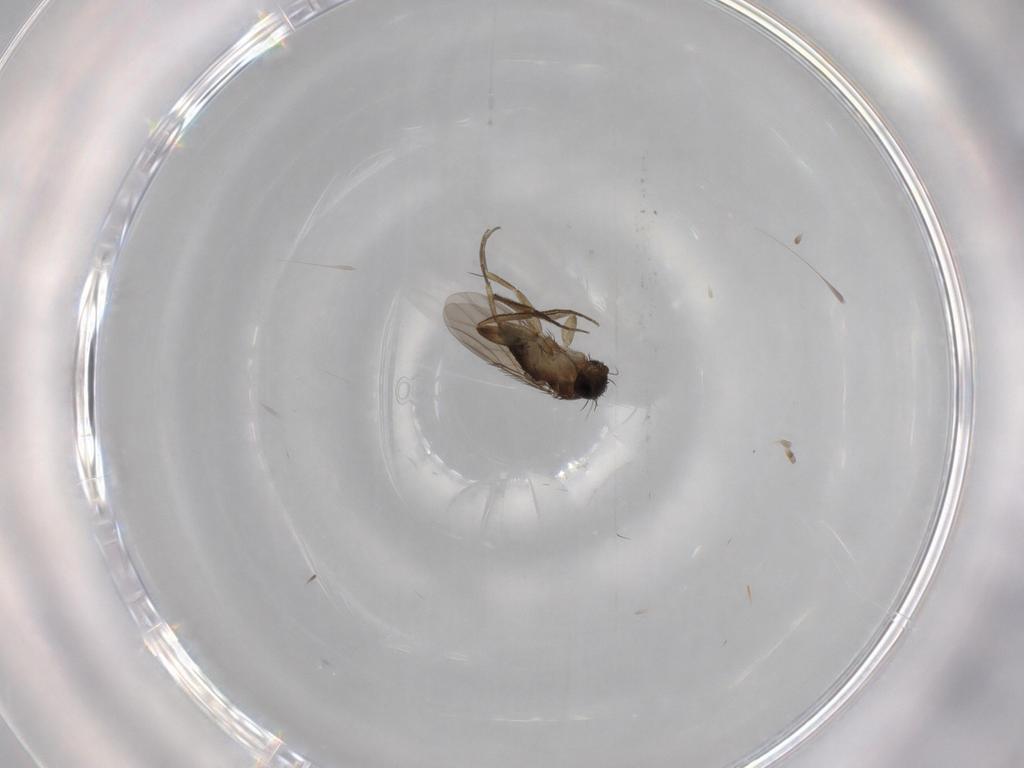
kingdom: Animalia
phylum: Arthropoda
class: Insecta
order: Diptera
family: Phoridae
